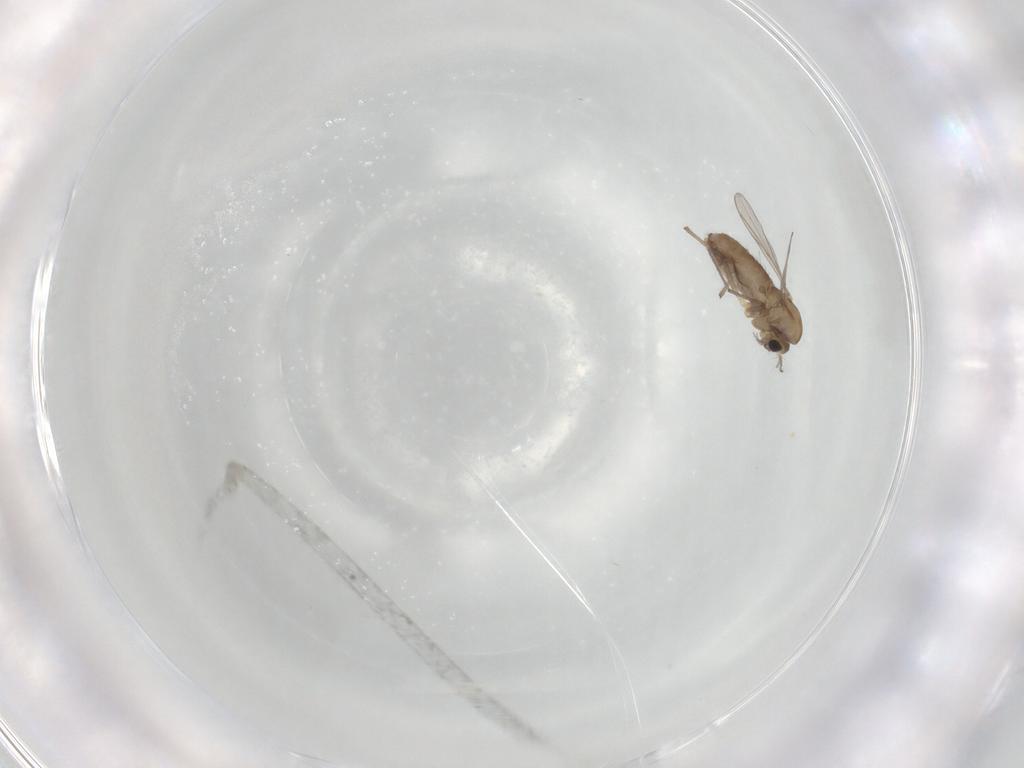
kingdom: Animalia
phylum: Arthropoda
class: Insecta
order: Diptera
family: Chironomidae
